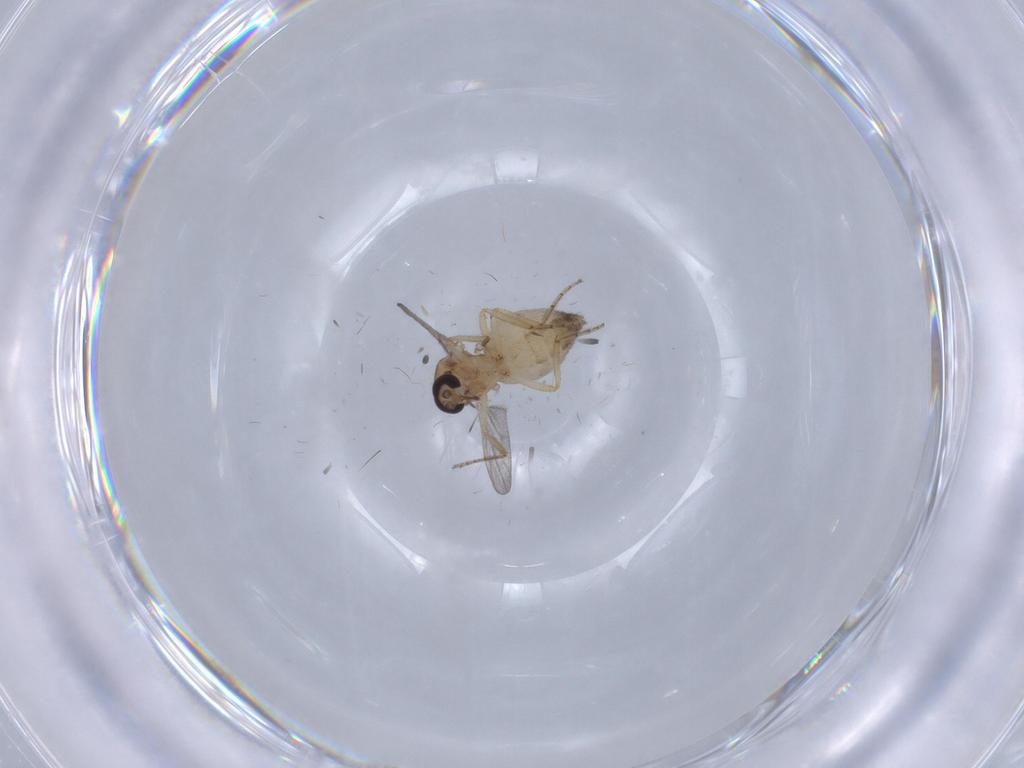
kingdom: Animalia
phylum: Arthropoda
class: Insecta
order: Diptera
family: Ceratopogonidae
